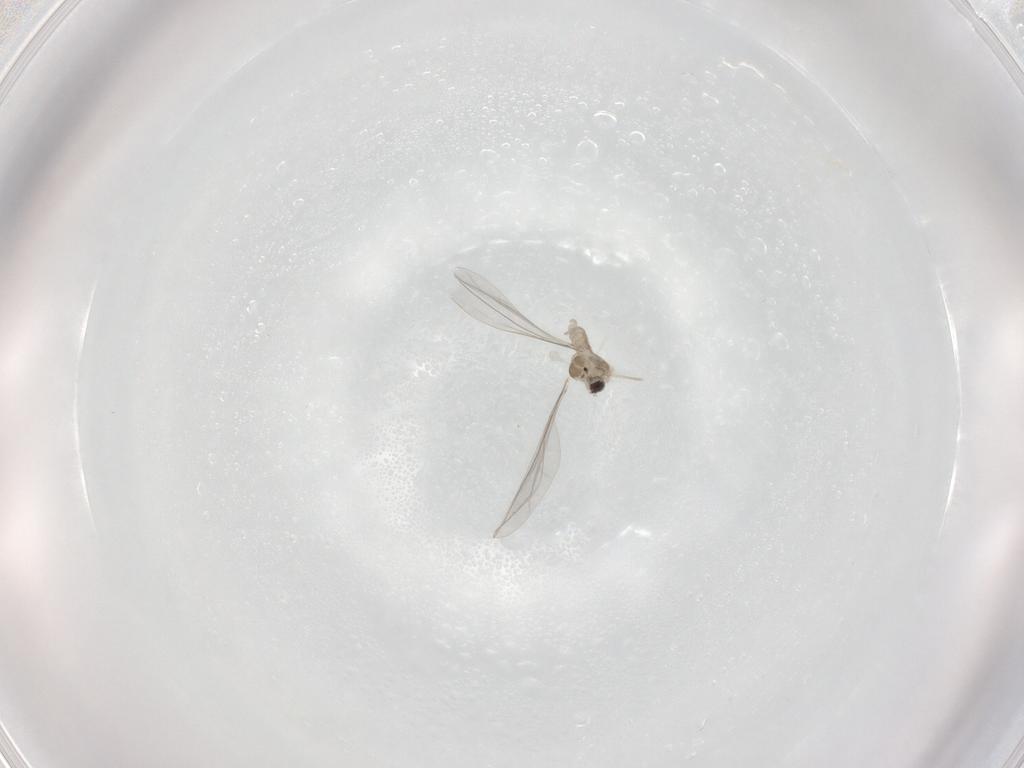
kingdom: Animalia
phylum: Arthropoda
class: Insecta
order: Diptera
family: Cecidomyiidae
